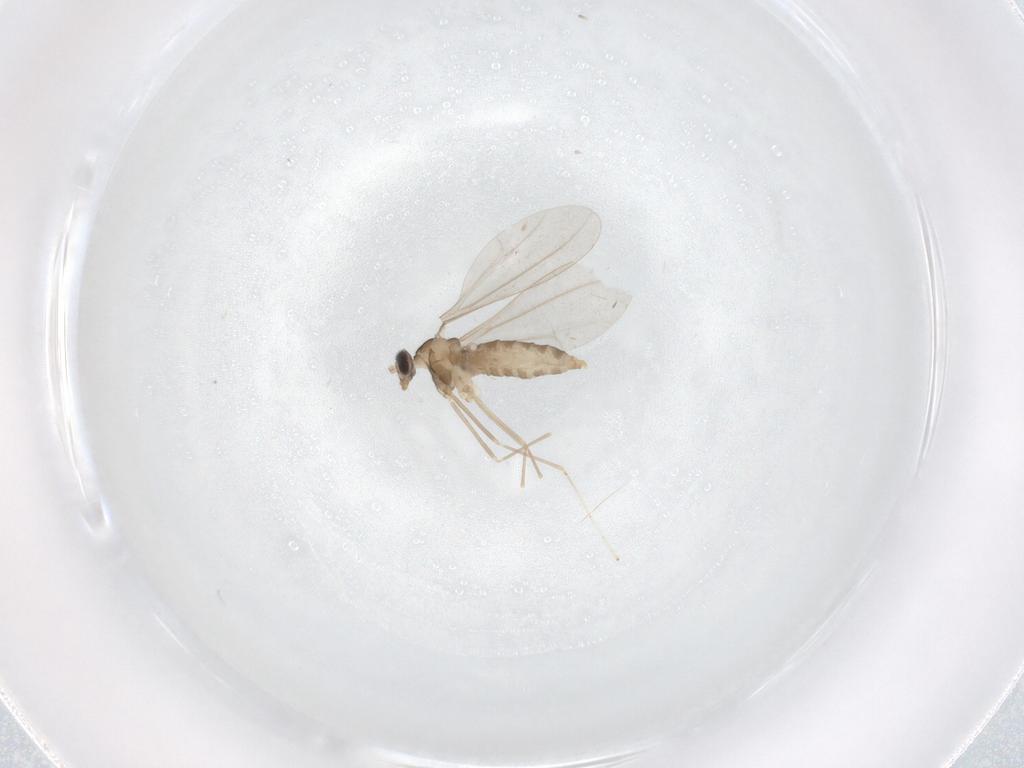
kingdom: Animalia
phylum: Arthropoda
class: Insecta
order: Diptera
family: Cecidomyiidae
